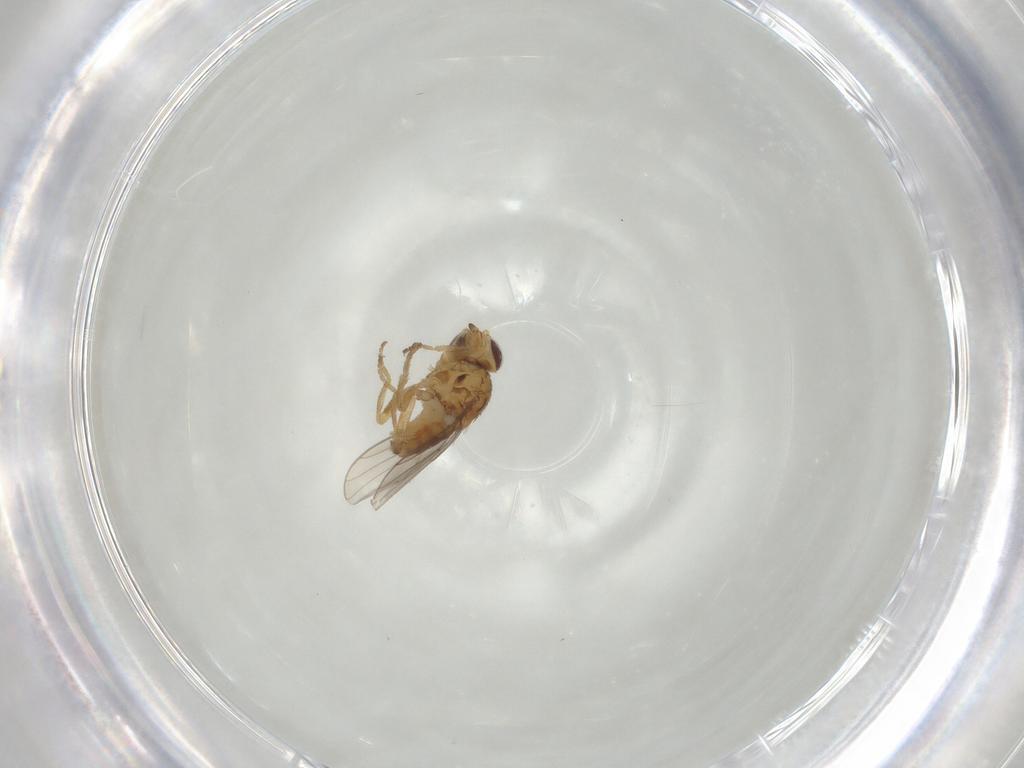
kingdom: Animalia
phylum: Arthropoda
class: Insecta
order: Diptera
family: Chloropidae
